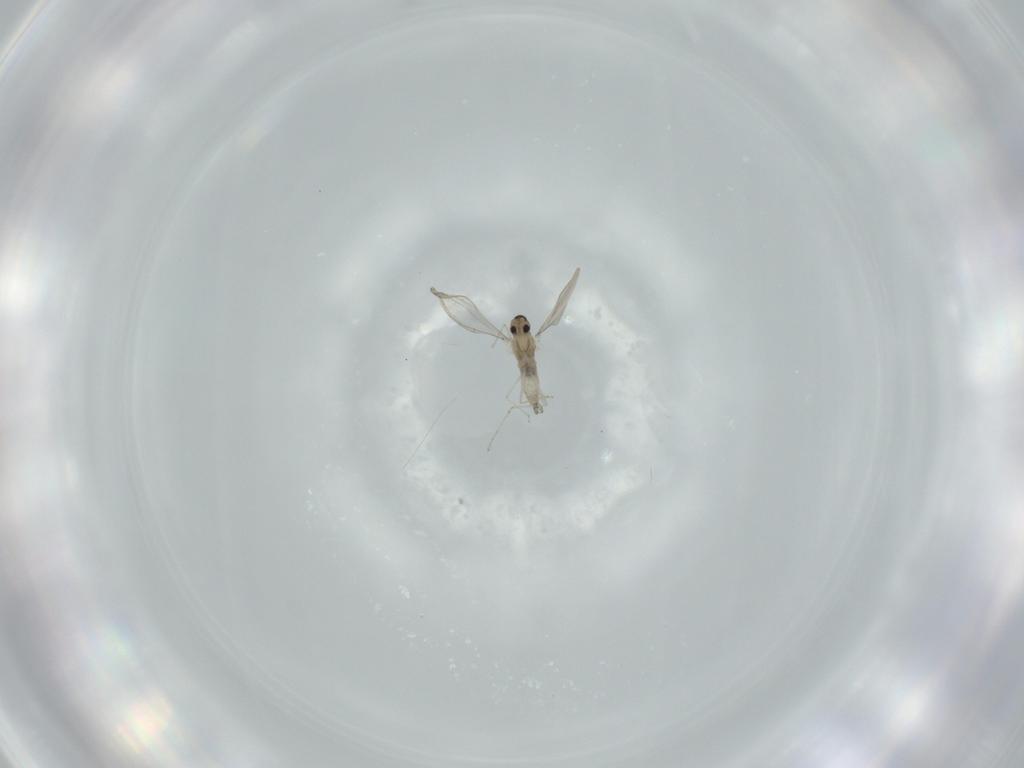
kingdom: Animalia
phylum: Arthropoda
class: Insecta
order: Diptera
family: Cecidomyiidae
